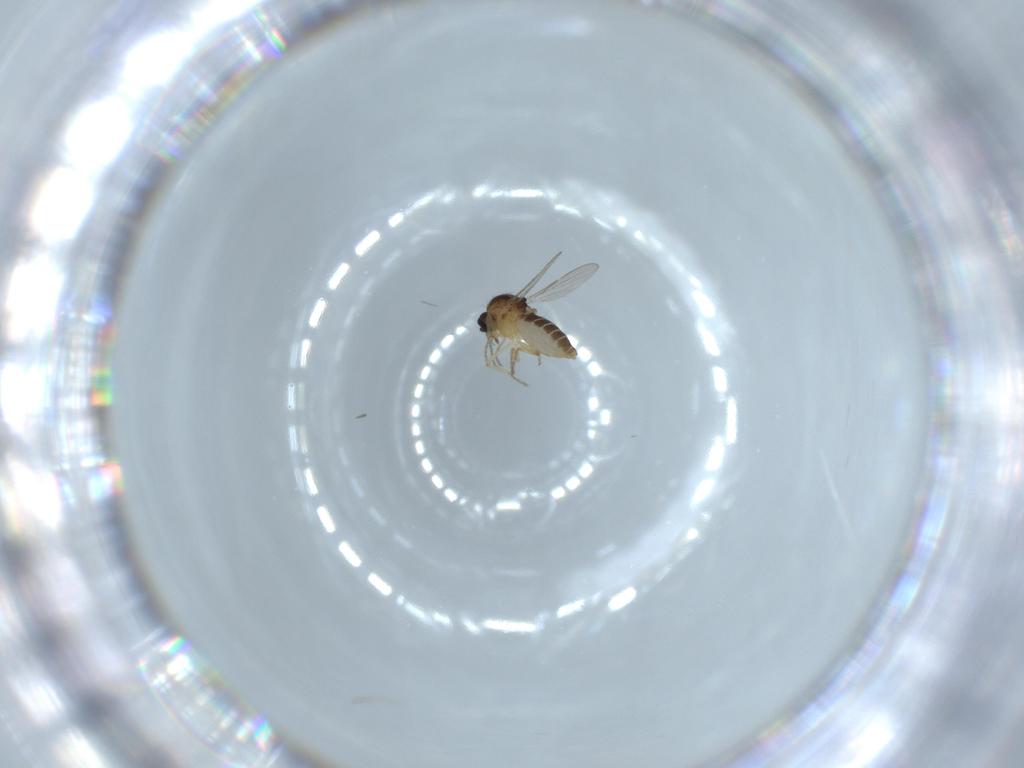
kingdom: Animalia
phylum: Arthropoda
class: Insecta
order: Diptera
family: Ceratopogonidae
